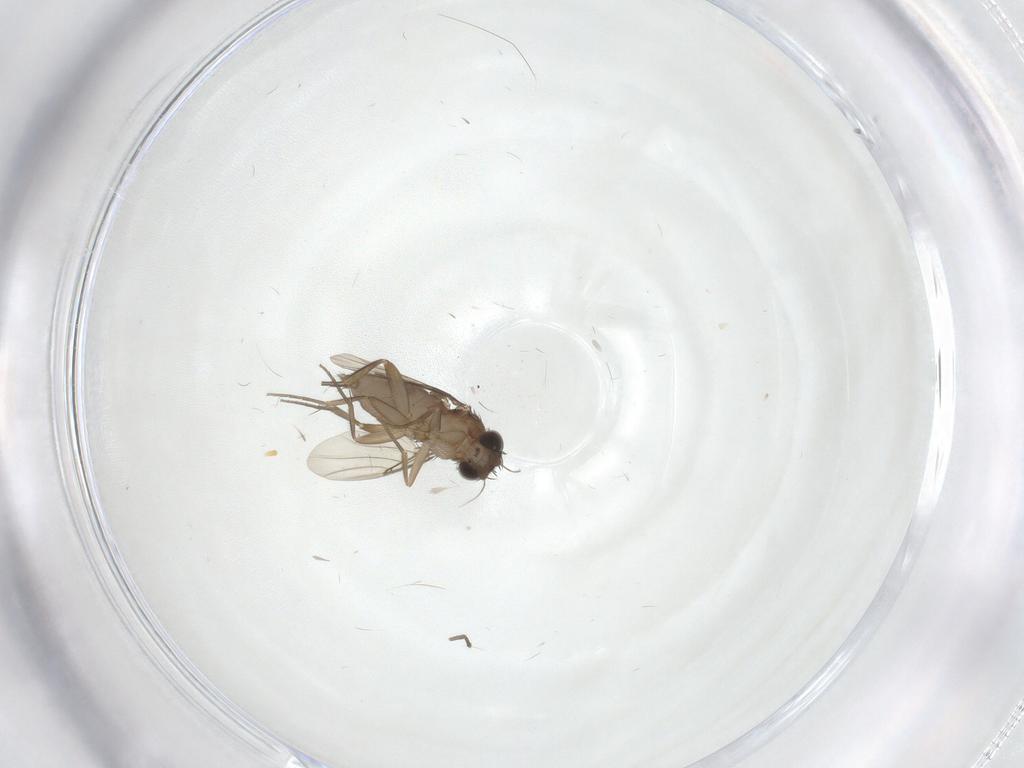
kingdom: Animalia
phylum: Arthropoda
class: Insecta
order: Diptera
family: Phoridae
